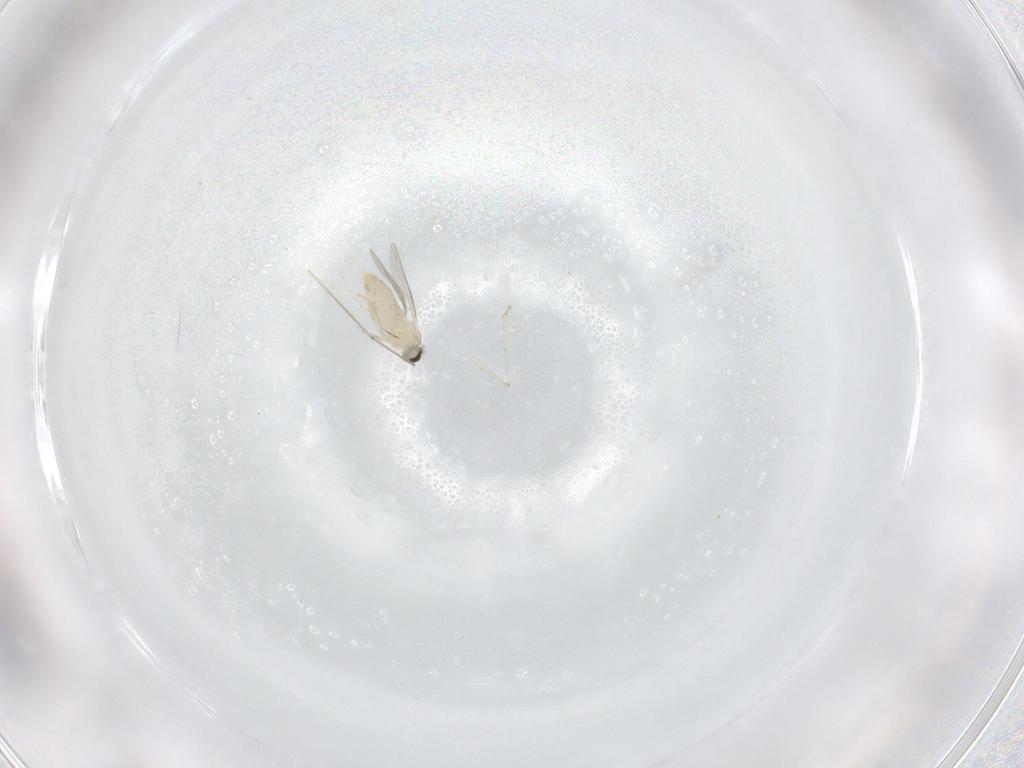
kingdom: Animalia
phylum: Arthropoda
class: Insecta
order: Diptera
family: Cecidomyiidae
